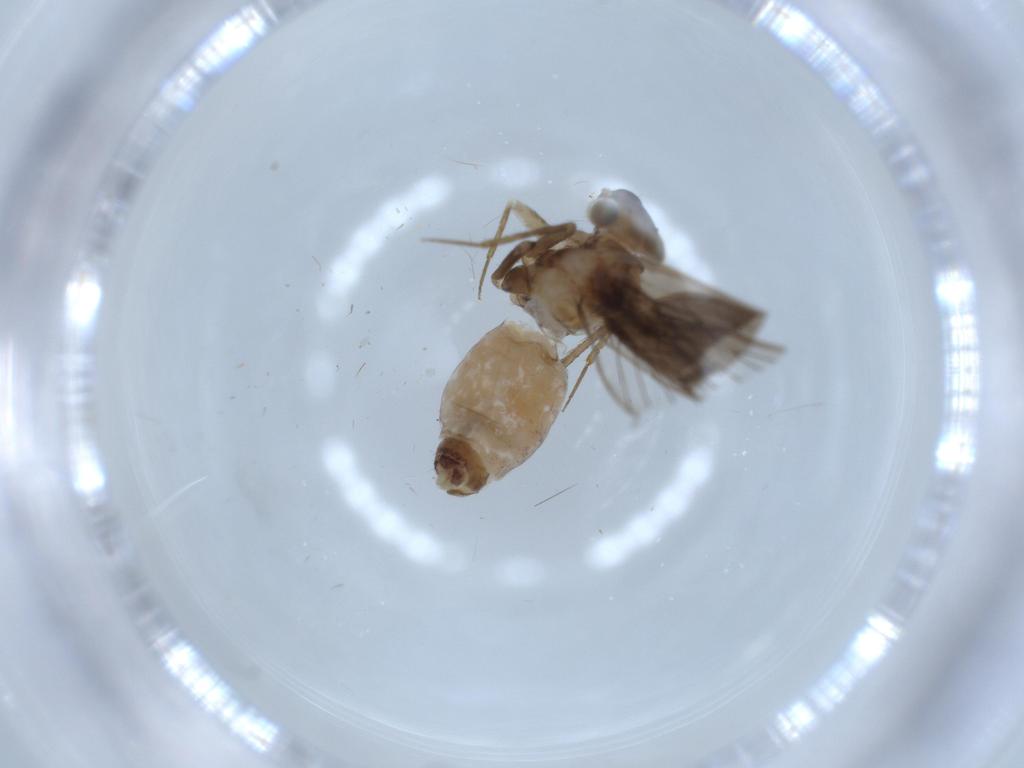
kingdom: Animalia
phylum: Arthropoda
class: Insecta
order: Psocodea
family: Lepidopsocidae
